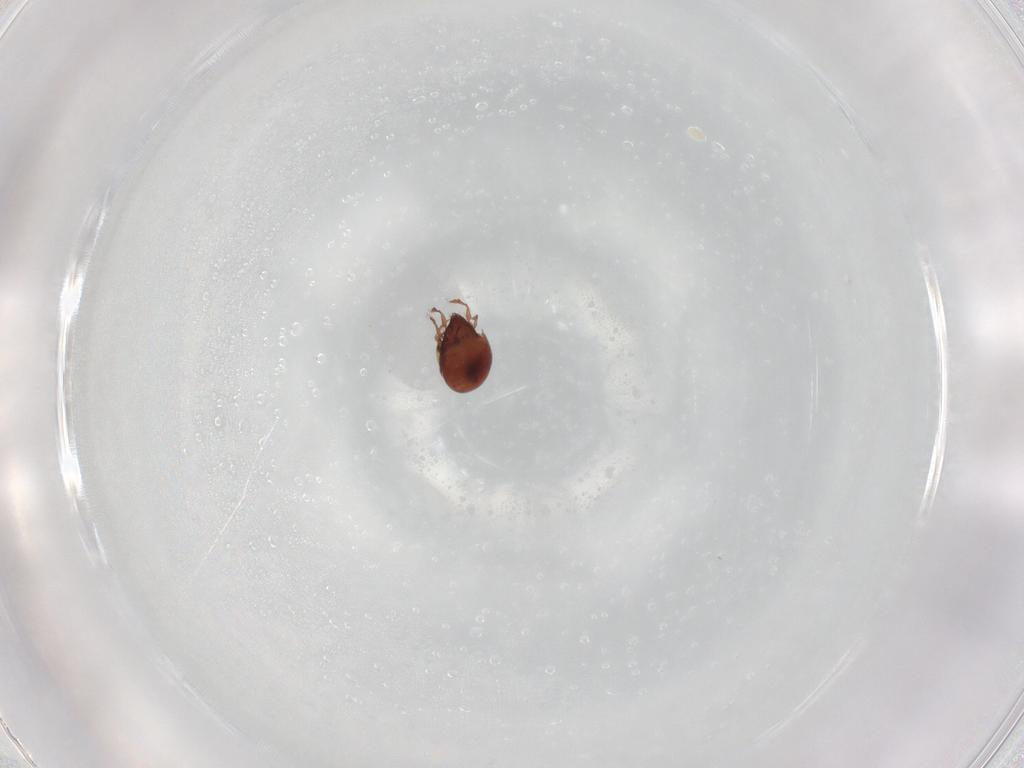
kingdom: Animalia
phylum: Arthropoda
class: Arachnida
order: Sarcoptiformes
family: Mochlozetidae
